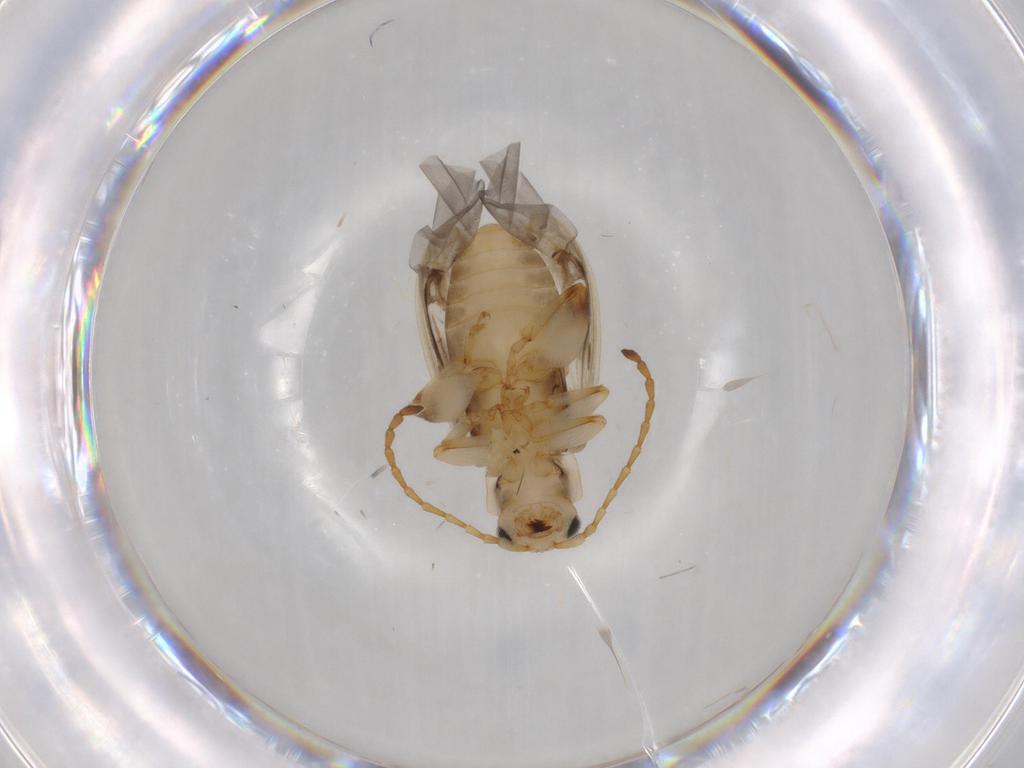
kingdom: Animalia
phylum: Arthropoda
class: Insecta
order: Coleoptera
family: Chrysomelidae
